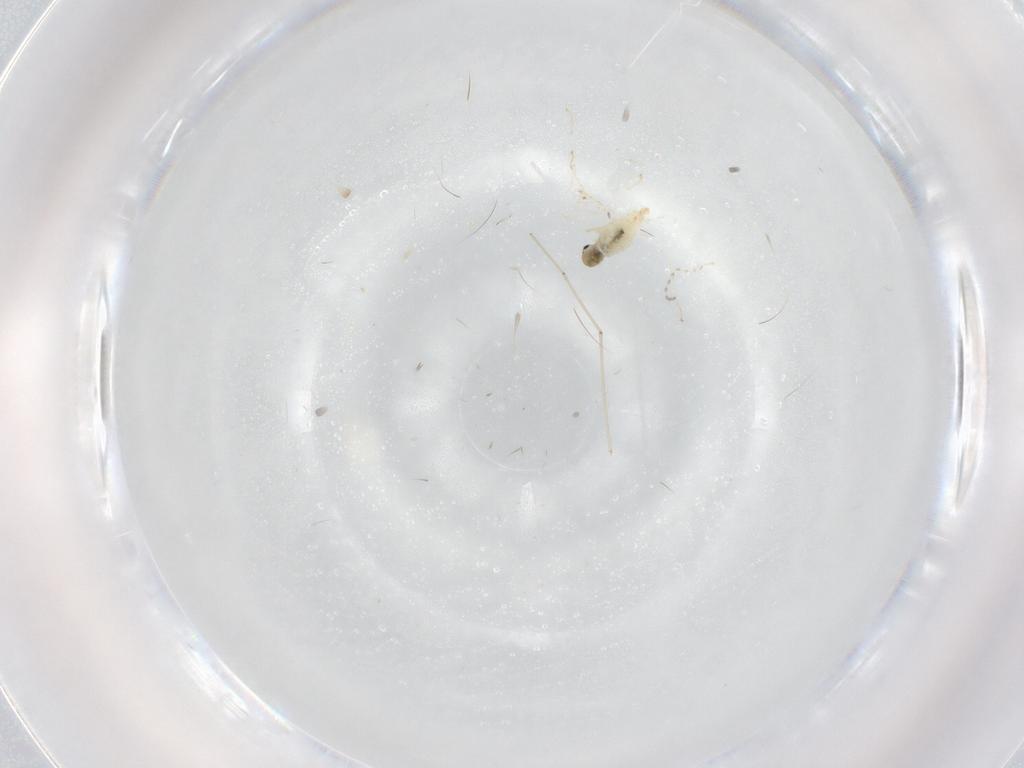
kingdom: Animalia
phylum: Arthropoda
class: Insecta
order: Diptera
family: Cecidomyiidae
